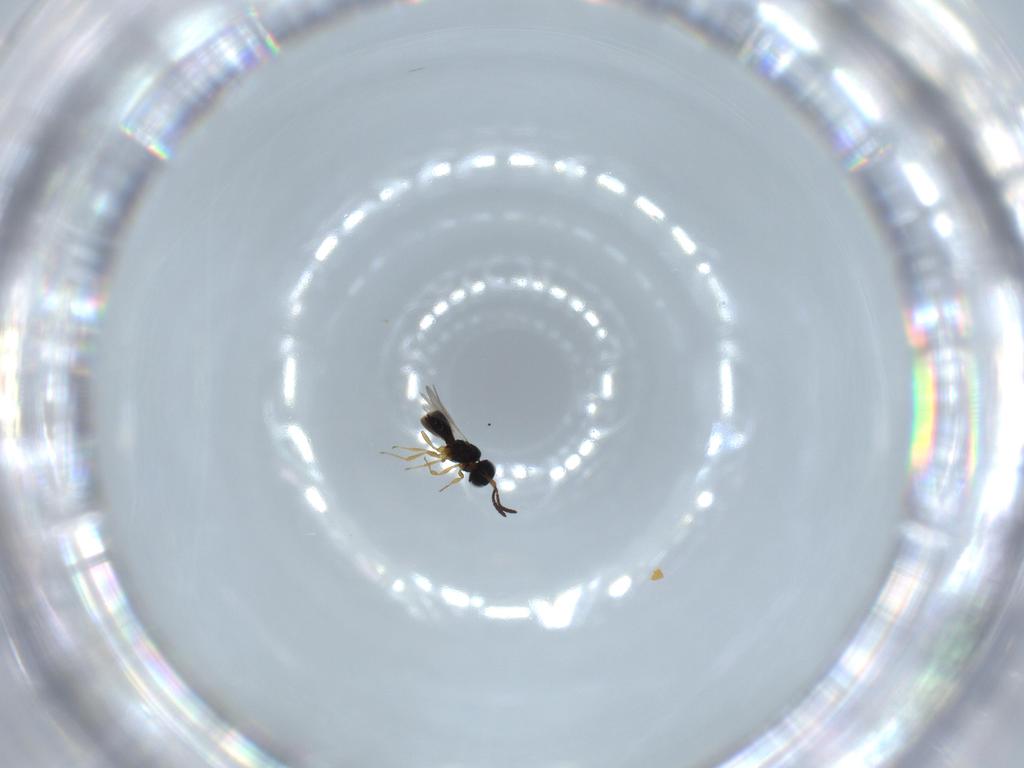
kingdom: Animalia
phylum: Arthropoda
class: Insecta
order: Hymenoptera
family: Scelionidae
